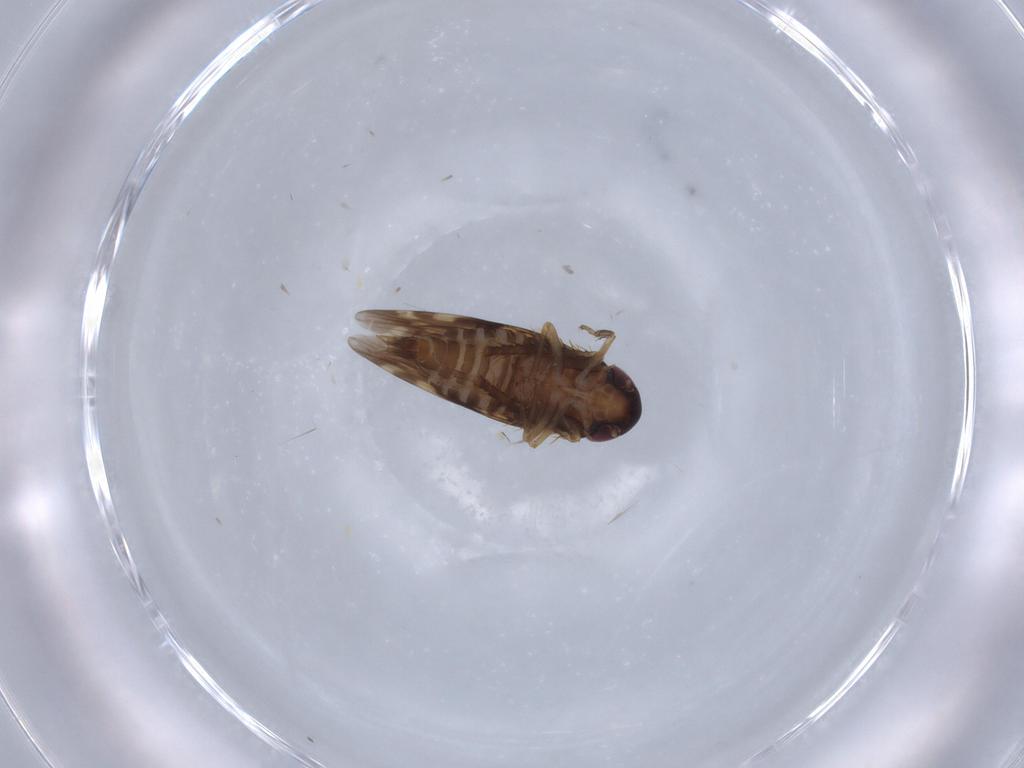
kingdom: Animalia
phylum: Arthropoda
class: Insecta
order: Hemiptera
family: Cicadellidae
